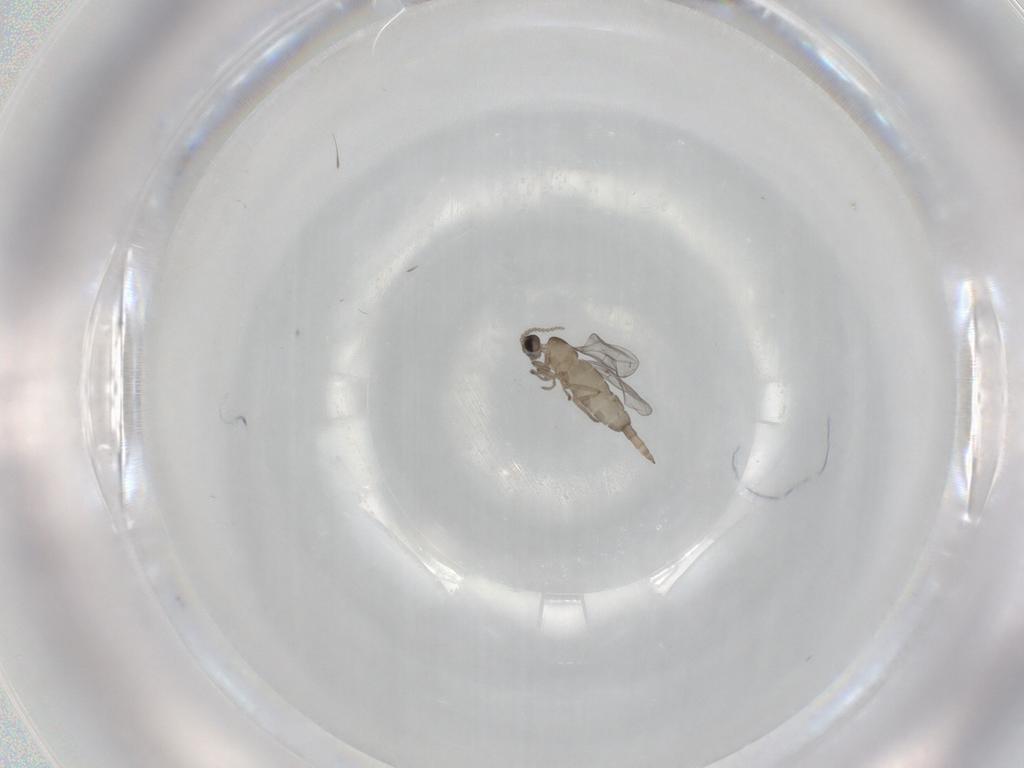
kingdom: Animalia
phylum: Arthropoda
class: Insecta
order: Diptera
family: Cecidomyiidae
